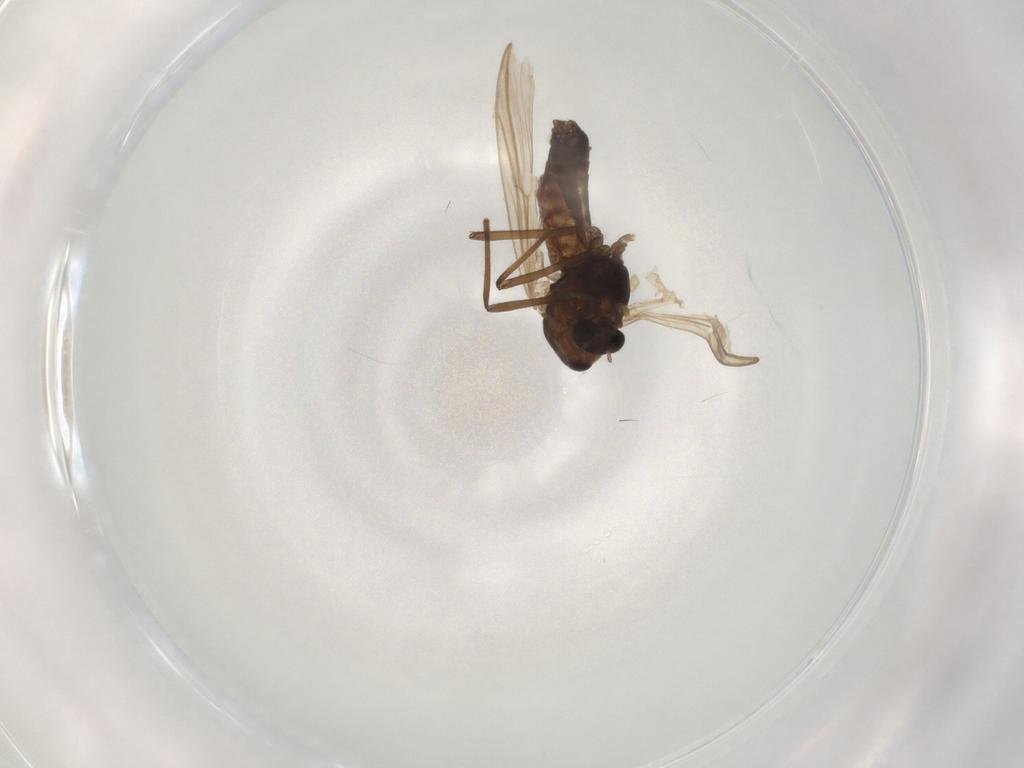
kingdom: Animalia
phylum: Arthropoda
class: Insecta
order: Diptera
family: Chironomidae
